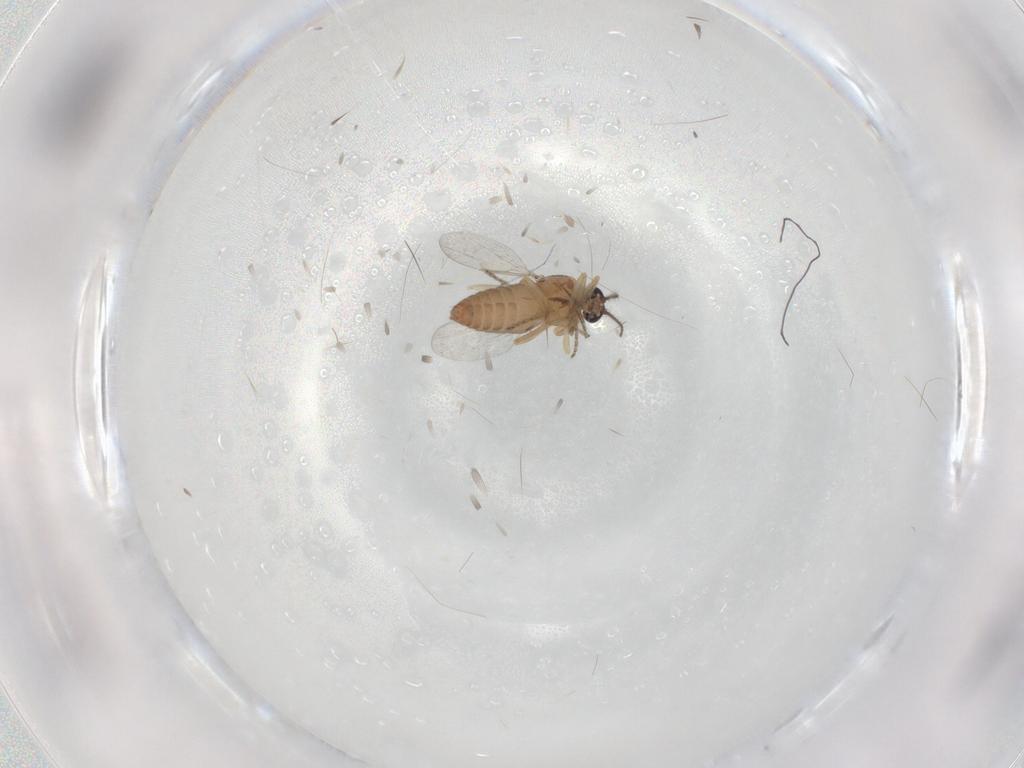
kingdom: Animalia
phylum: Arthropoda
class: Insecta
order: Diptera
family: Ceratopogonidae
